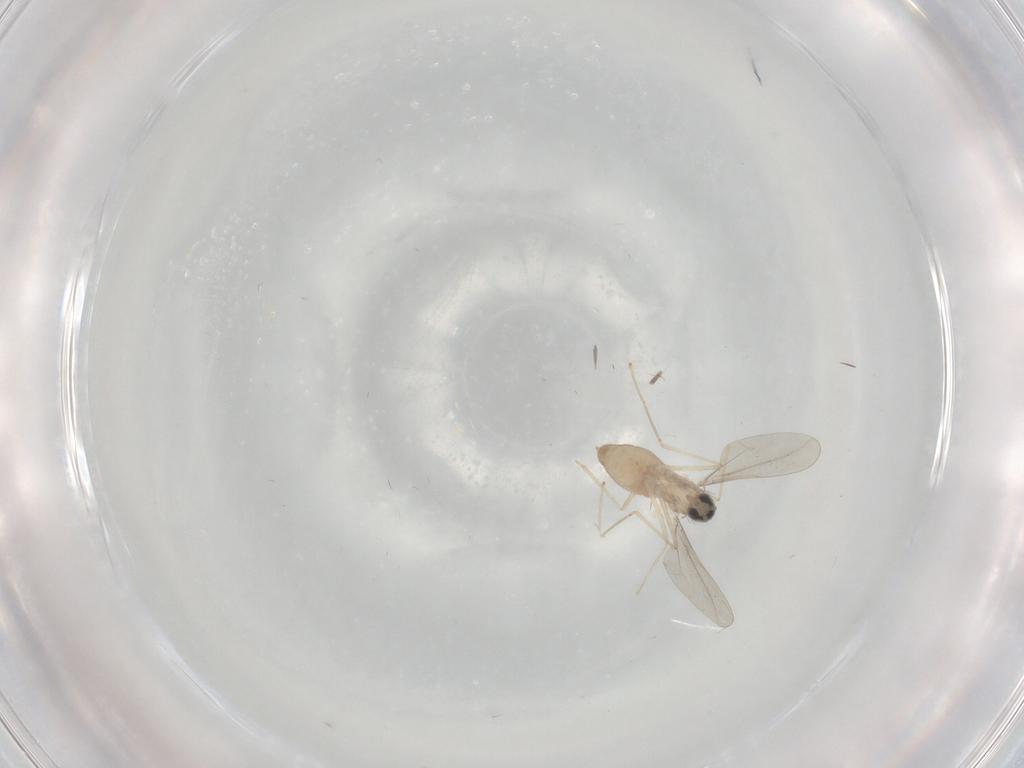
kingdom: Animalia
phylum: Arthropoda
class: Insecta
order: Diptera
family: Cecidomyiidae
